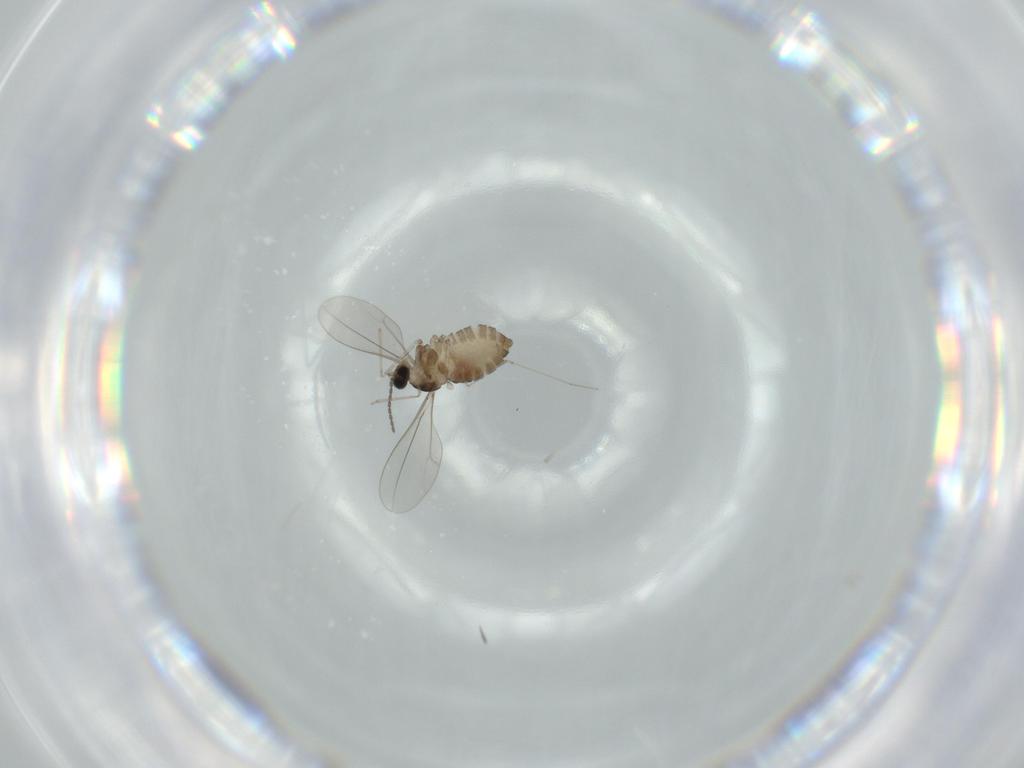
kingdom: Animalia
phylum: Arthropoda
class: Insecta
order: Diptera
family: Cecidomyiidae
